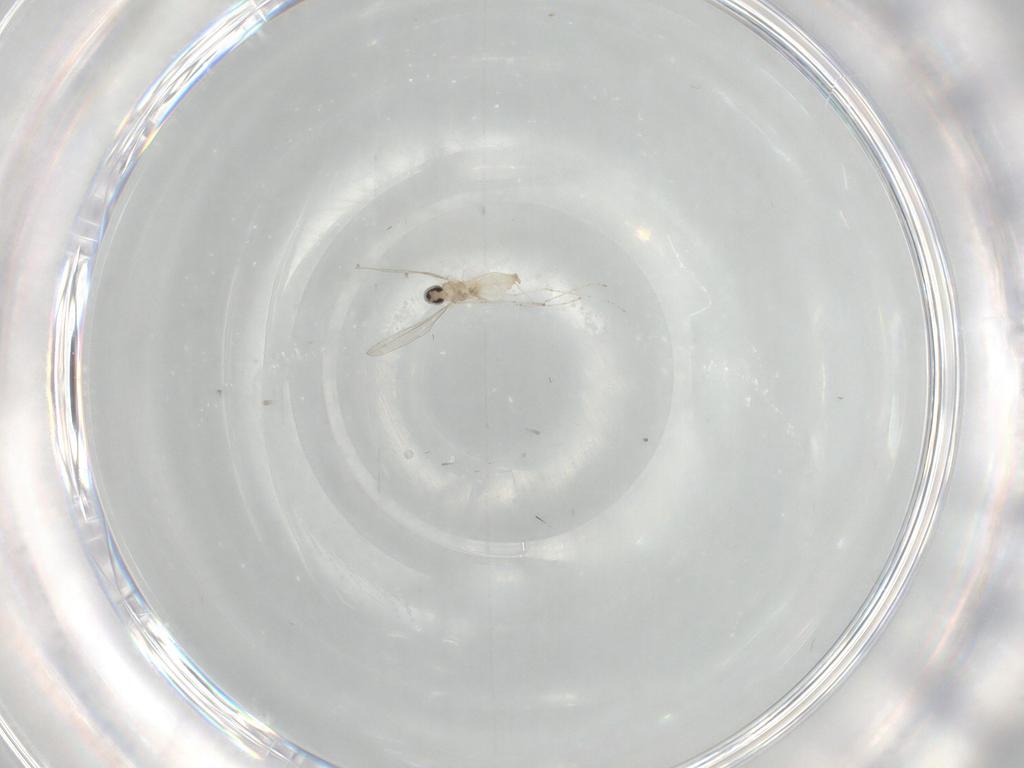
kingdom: Animalia
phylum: Arthropoda
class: Insecta
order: Diptera
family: Cecidomyiidae
